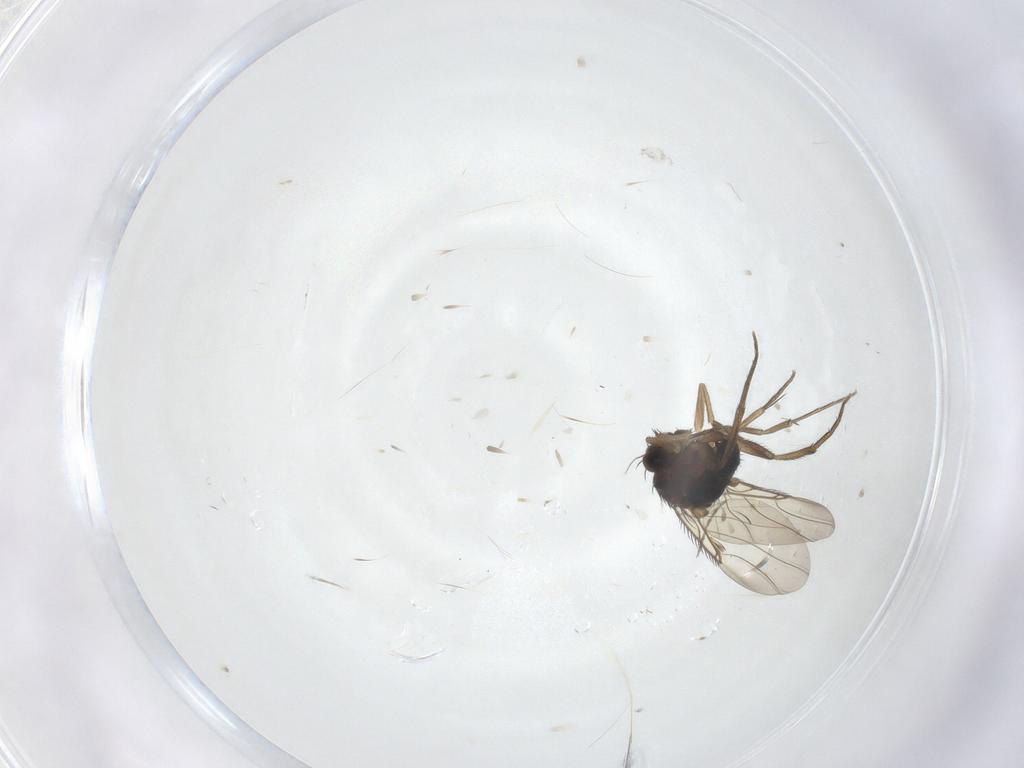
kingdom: Animalia
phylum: Arthropoda
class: Insecta
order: Diptera
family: Phoridae
